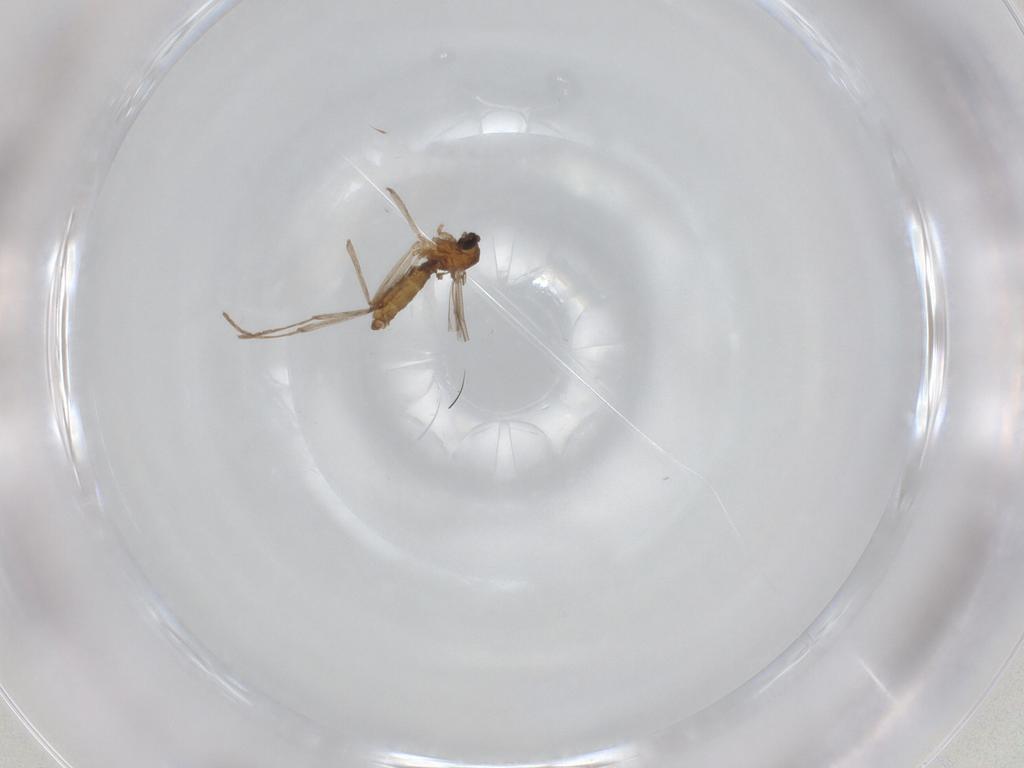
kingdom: Animalia
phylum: Arthropoda
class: Insecta
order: Diptera
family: Cecidomyiidae
